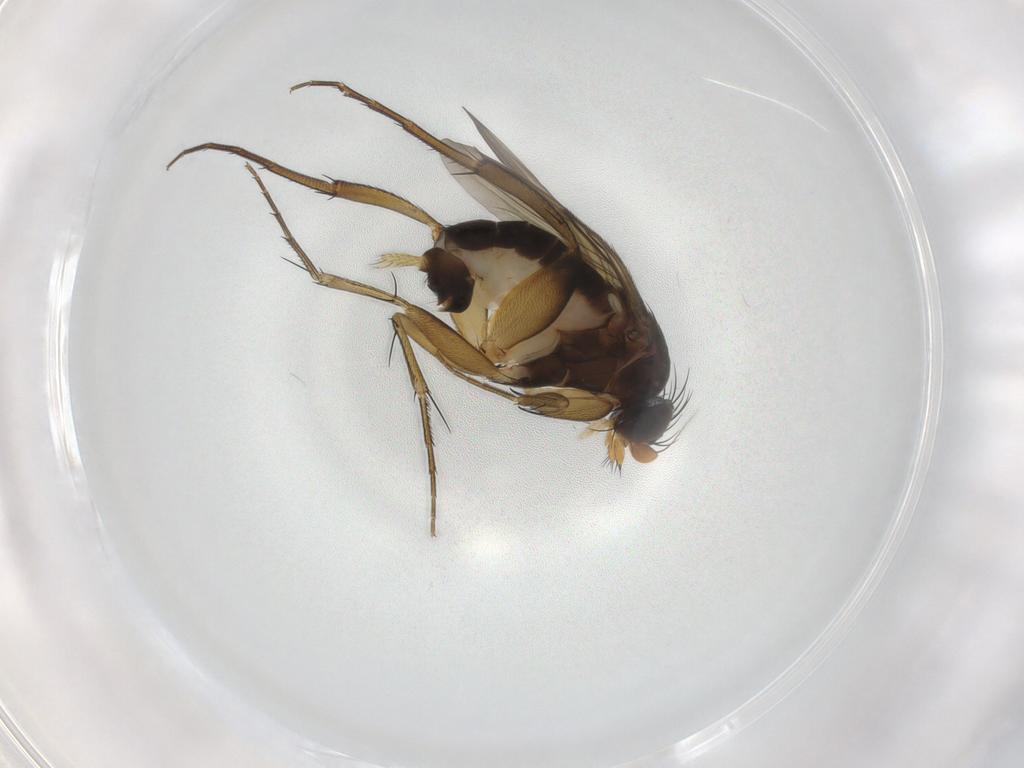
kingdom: Animalia
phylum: Arthropoda
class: Insecta
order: Diptera
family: Phoridae
